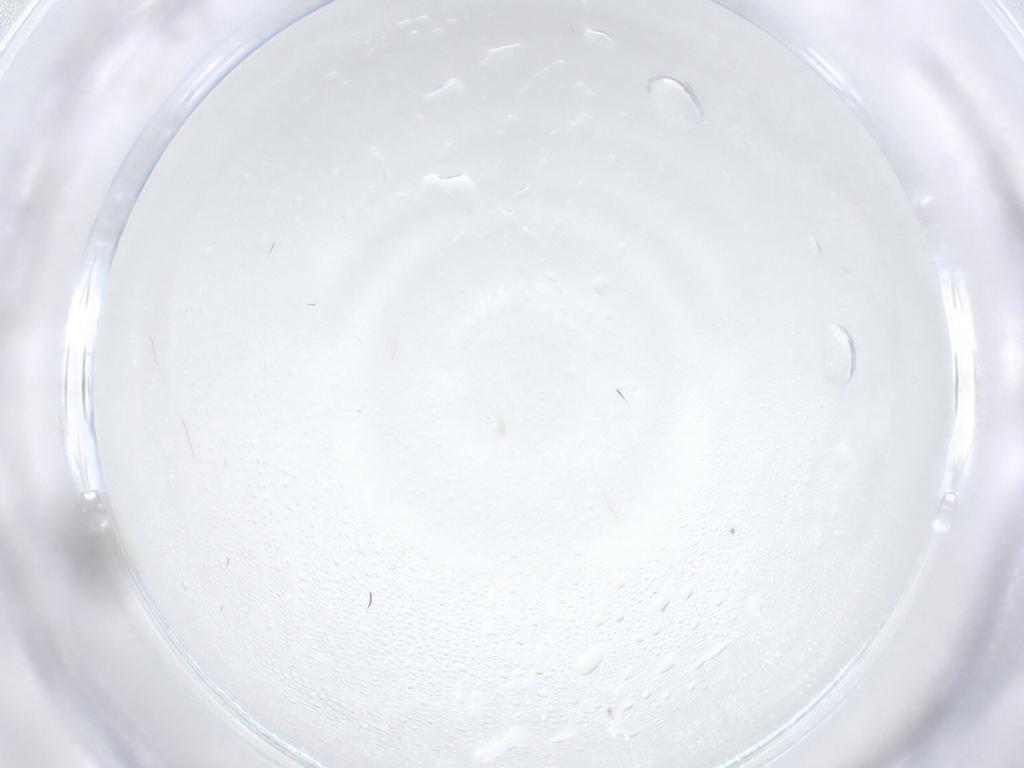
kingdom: Animalia
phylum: Arthropoda
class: Insecta
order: Hymenoptera
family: Scelionidae
